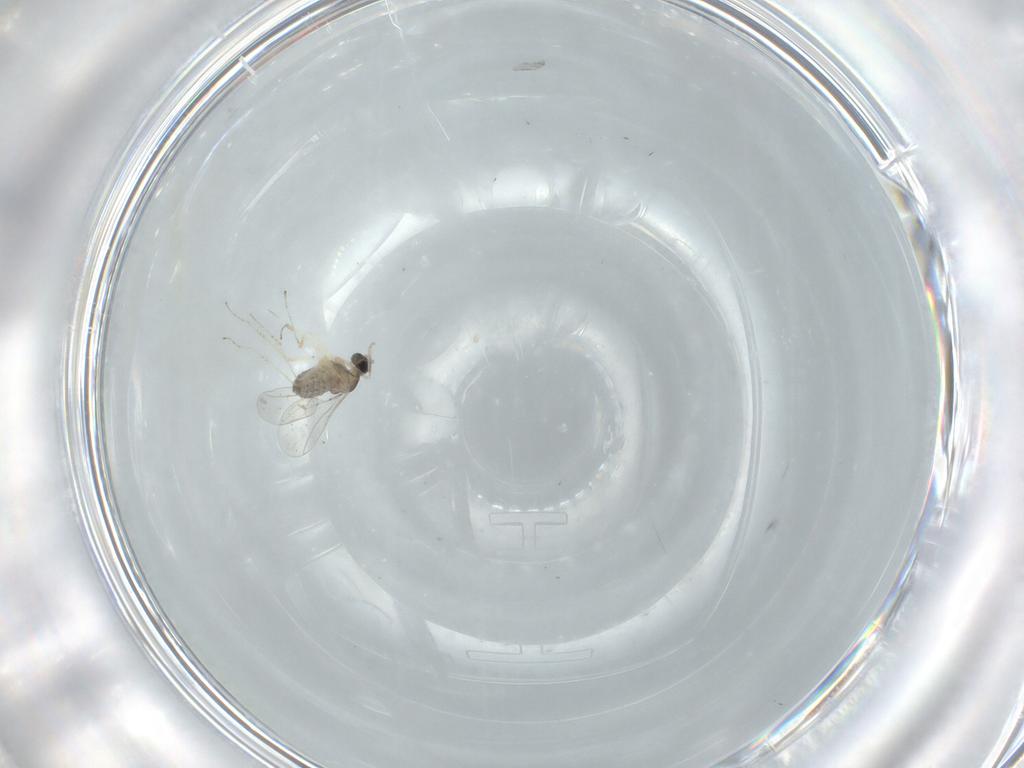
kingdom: Animalia
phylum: Arthropoda
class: Insecta
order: Diptera
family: Cecidomyiidae
